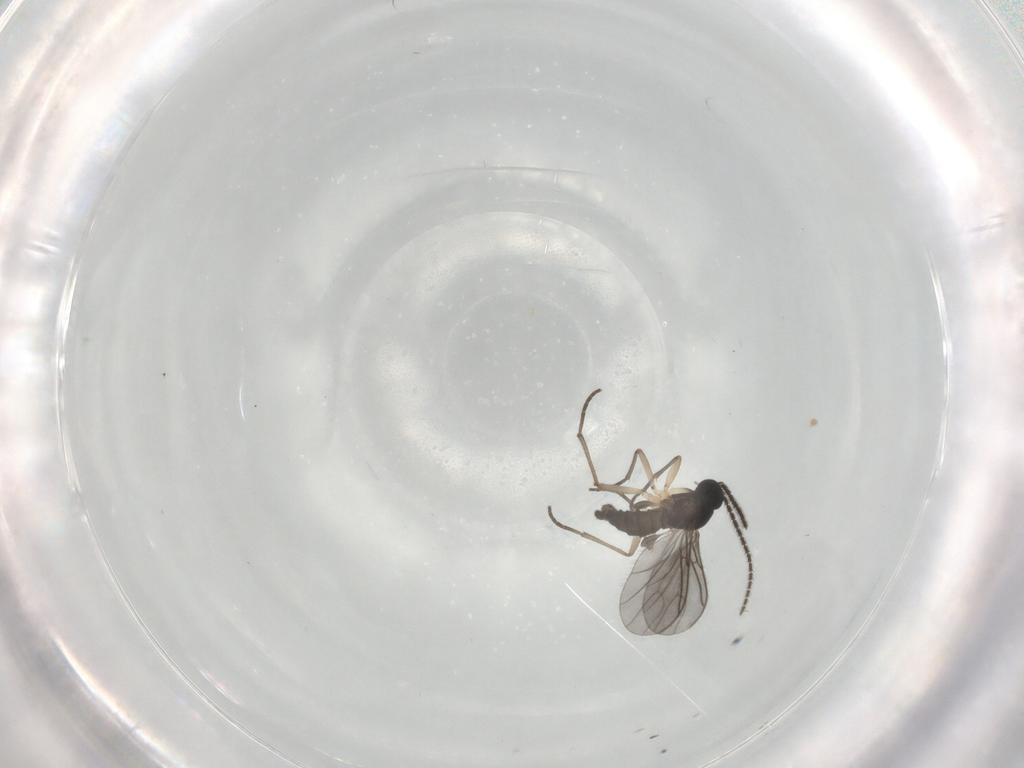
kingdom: Animalia
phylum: Arthropoda
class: Insecta
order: Diptera
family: Sciaridae
